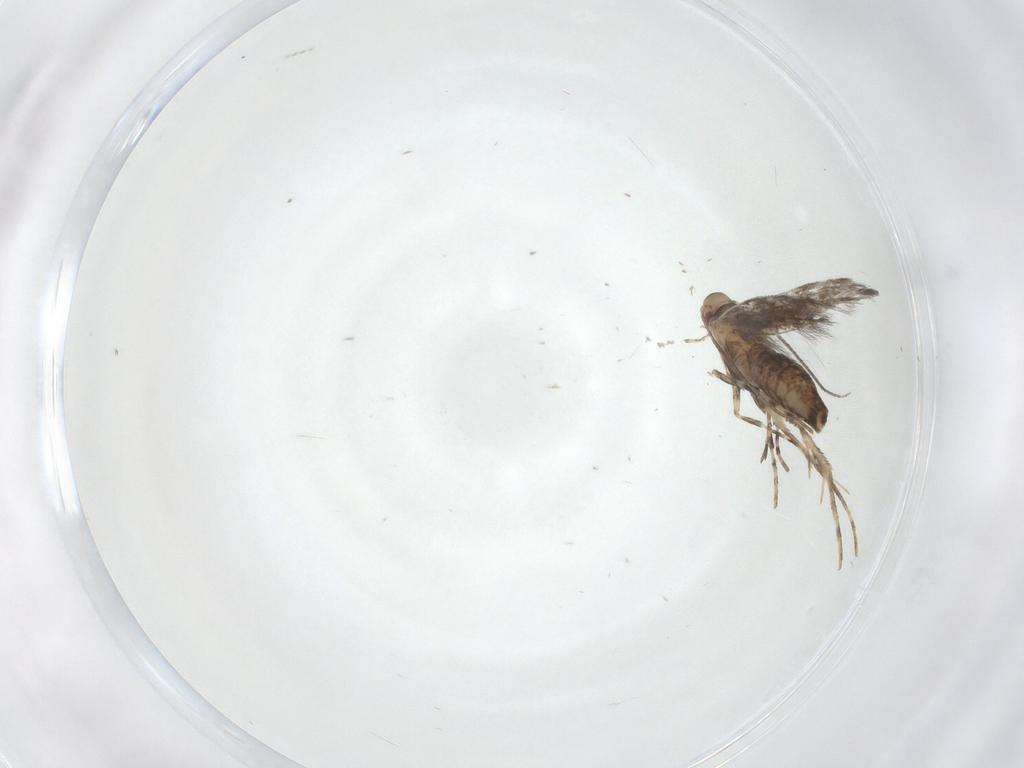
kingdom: Animalia
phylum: Arthropoda
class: Insecta
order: Lepidoptera
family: Gracillariidae
